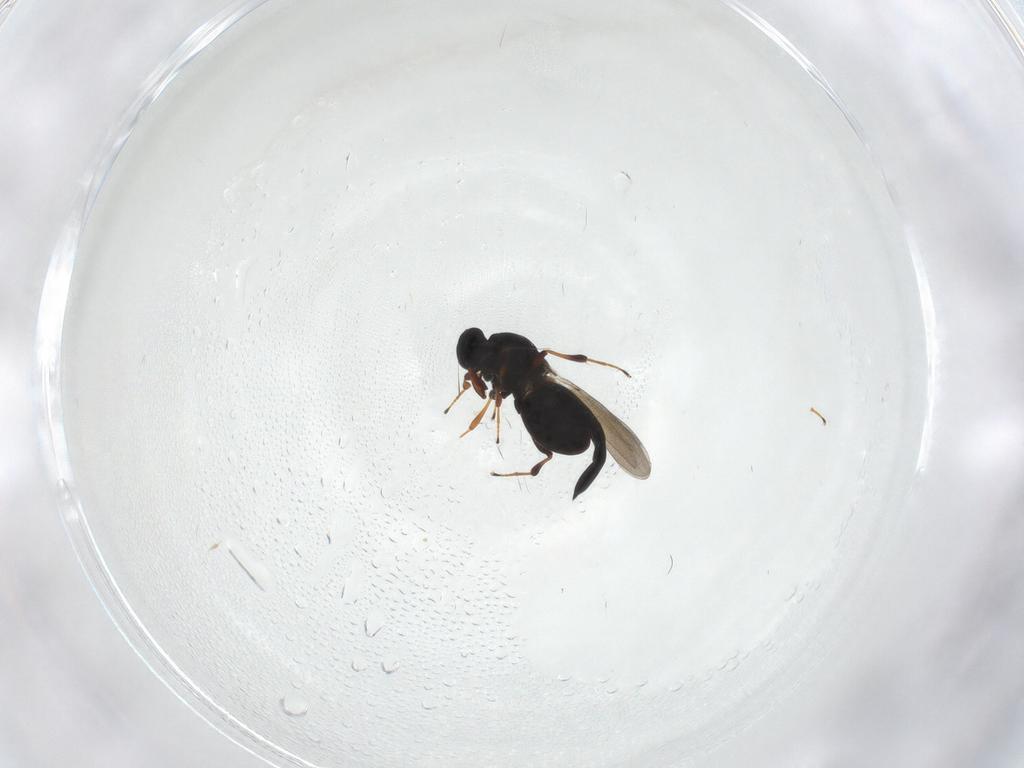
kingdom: Animalia
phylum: Arthropoda
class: Insecta
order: Hymenoptera
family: Platygastridae
